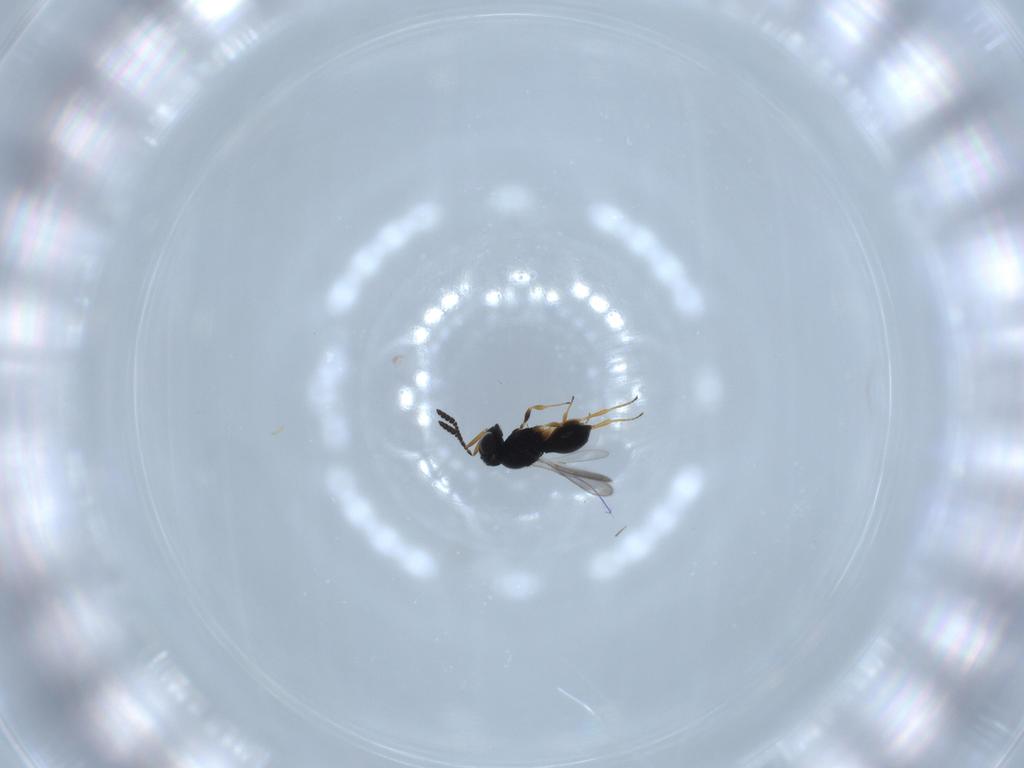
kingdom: Animalia
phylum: Arthropoda
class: Insecta
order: Hymenoptera
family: Scelionidae
